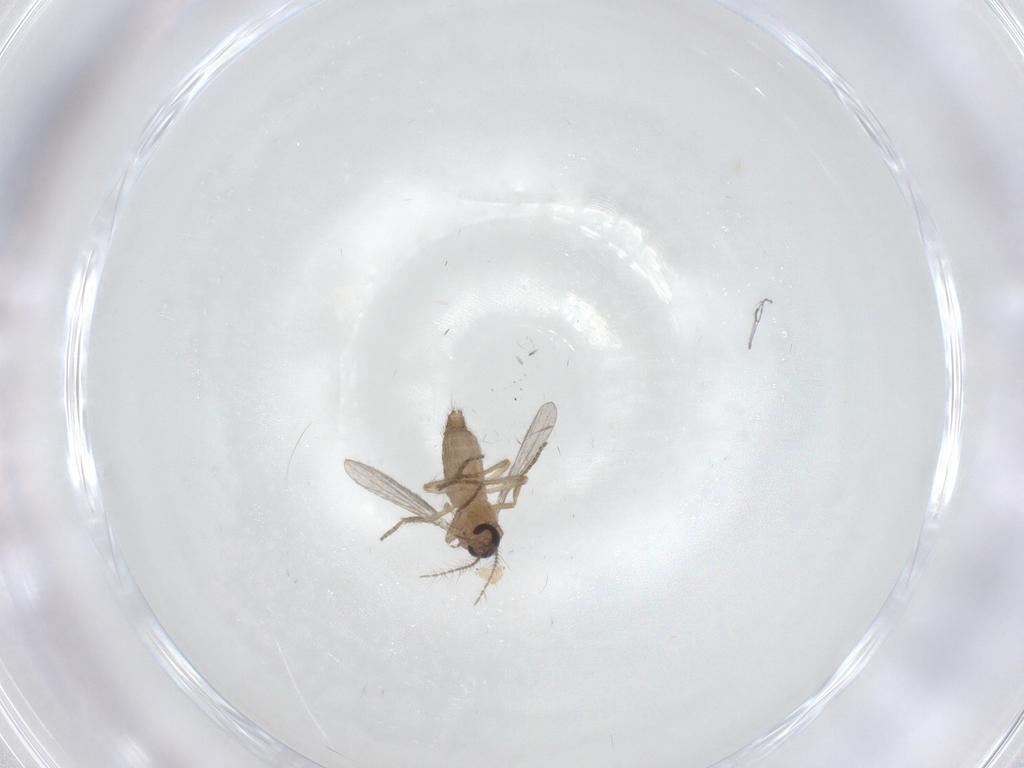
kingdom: Animalia
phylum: Arthropoda
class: Insecta
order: Diptera
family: Ceratopogonidae
